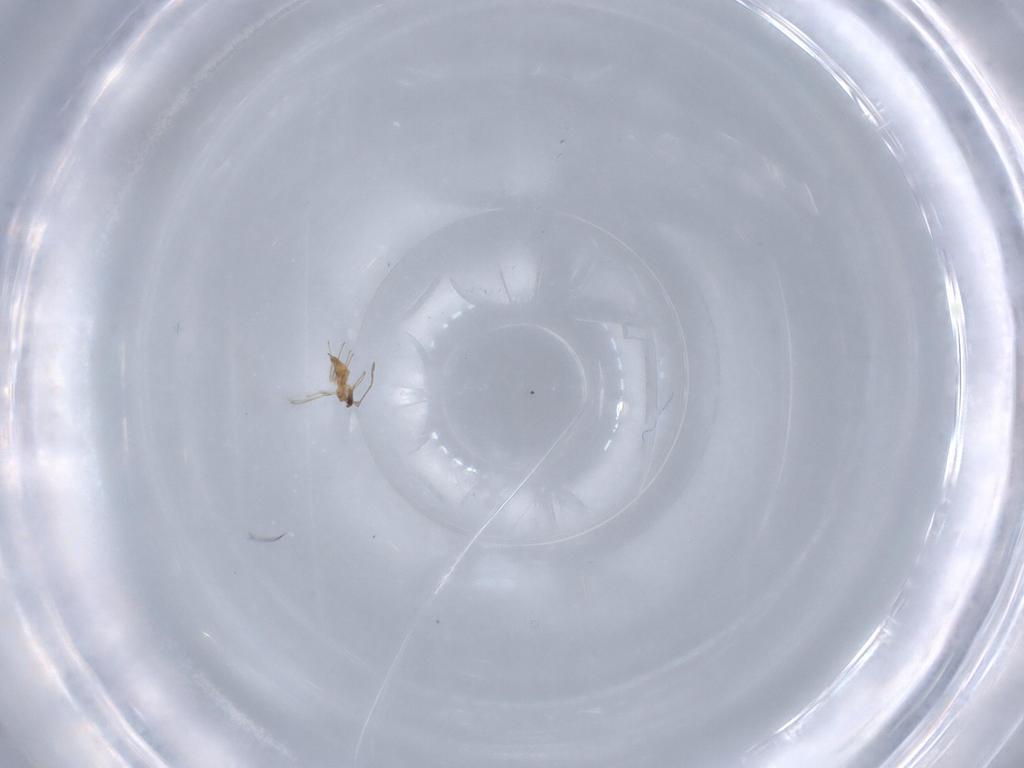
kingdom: Animalia
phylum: Arthropoda
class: Insecta
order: Hymenoptera
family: Mymaridae
